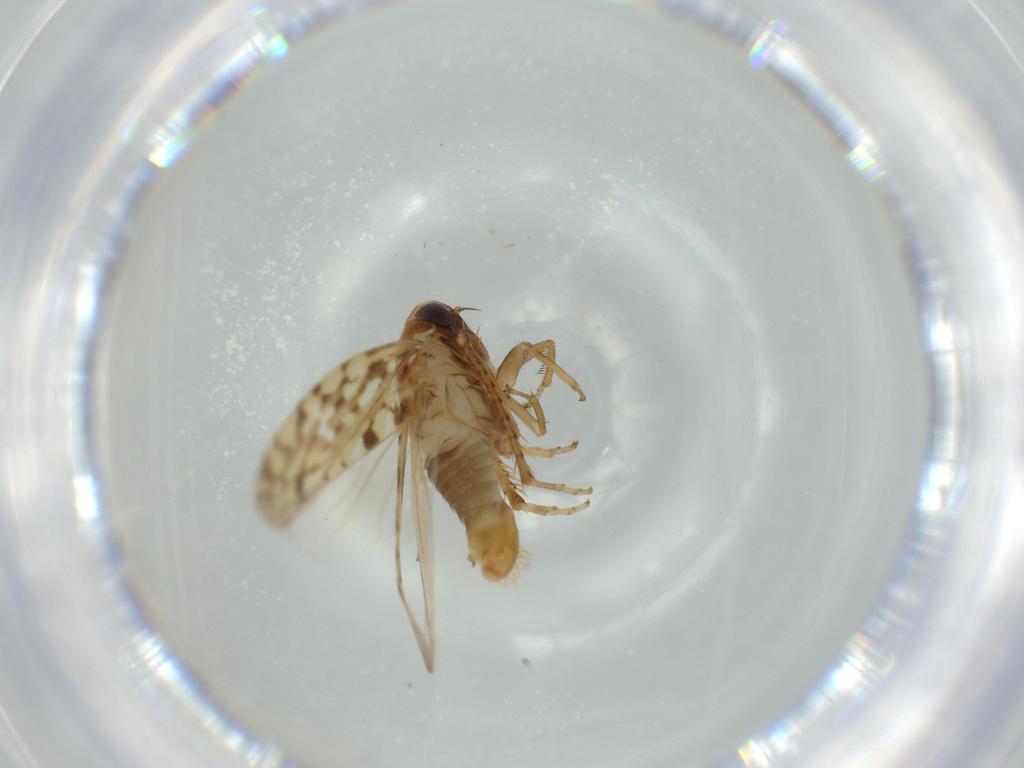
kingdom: Animalia
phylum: Arthropoda
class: Insecta
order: Hemiptera
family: Cicadellidae
